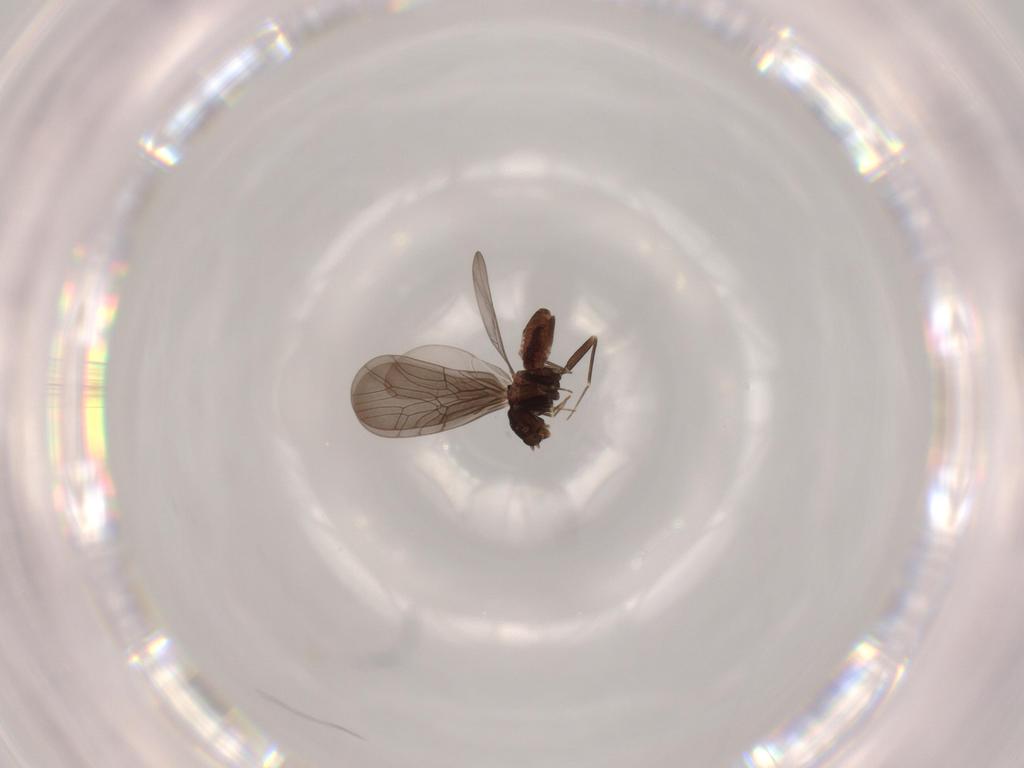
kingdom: Animalia
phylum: Arthropoda
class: Insecta
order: Psocodea
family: Lepidopsocidae
